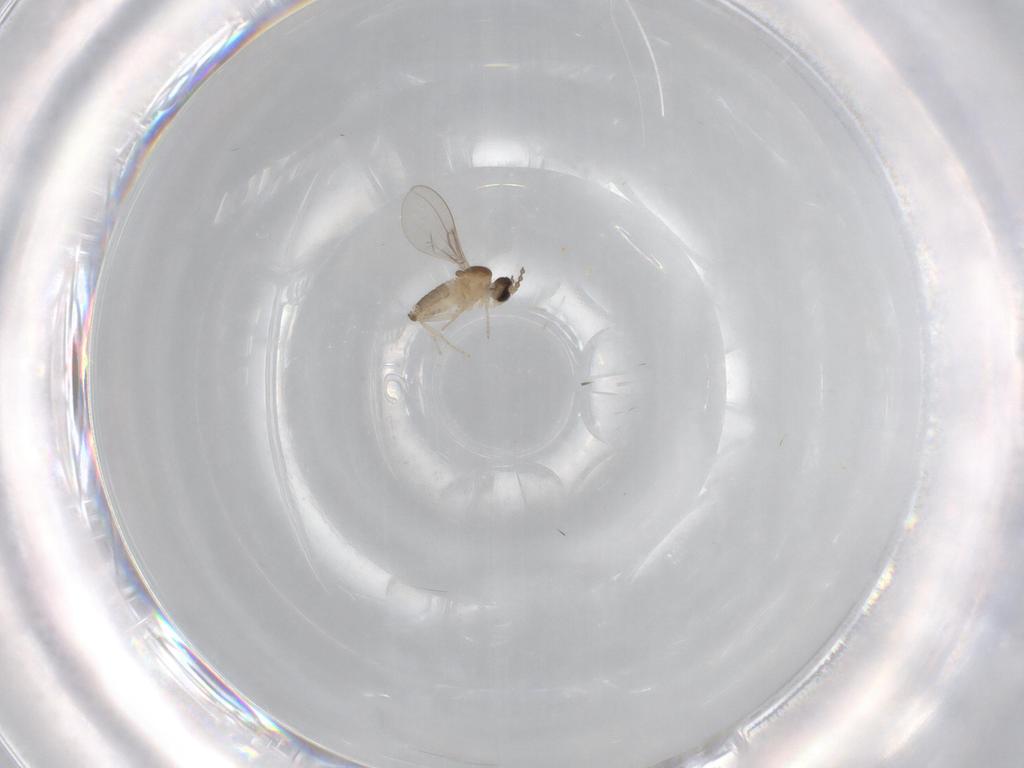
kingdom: Animalia
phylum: Arthropoda
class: Insecta
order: Diptera
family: Cecidomyiidae
